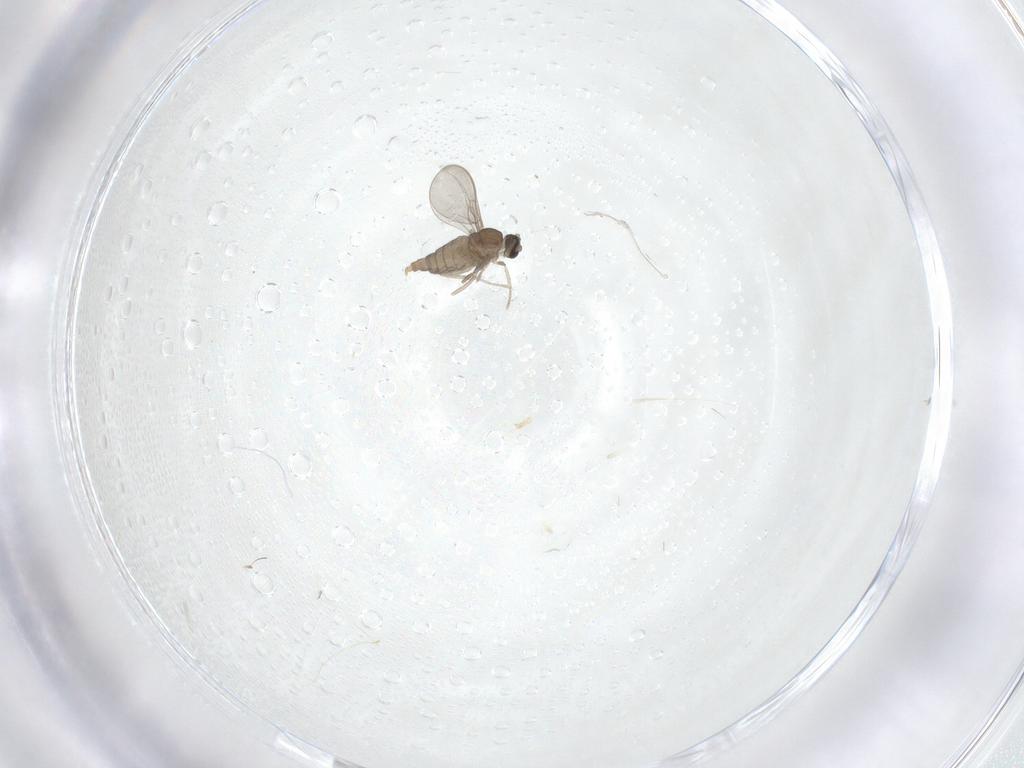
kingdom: Animalia
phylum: Arthropoda
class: Insecta
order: Diptera
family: Cecidomyiidae
